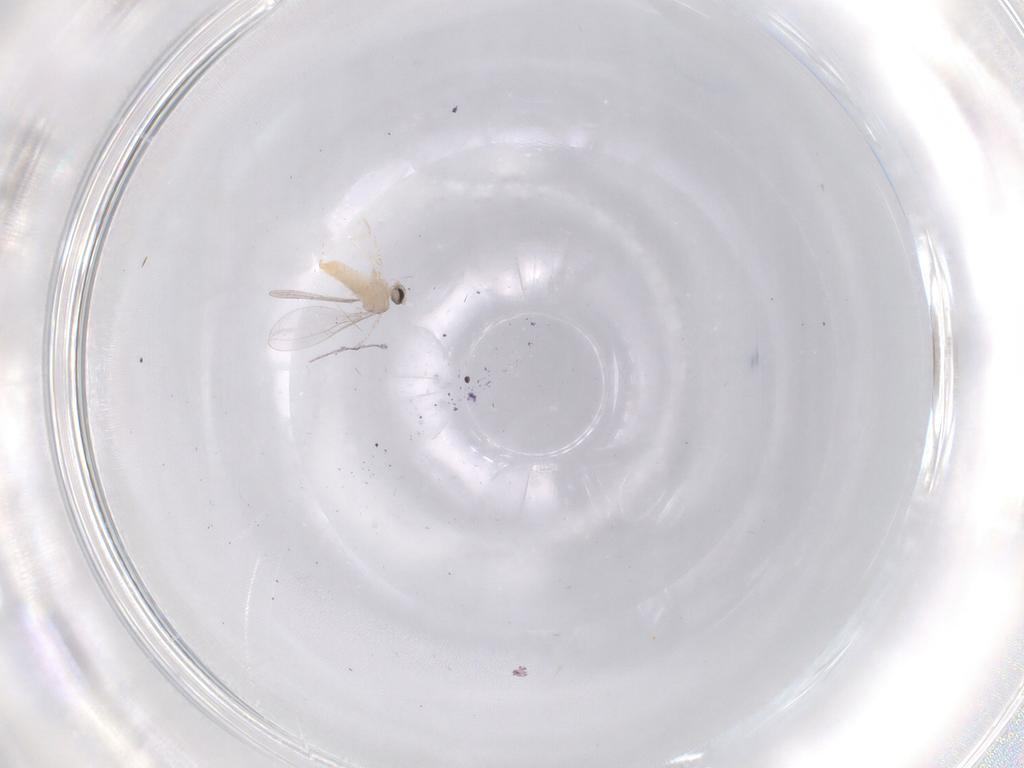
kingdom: Animalia
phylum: Arthropoda
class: Insecta
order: Diptera
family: Cecidomyiidae
